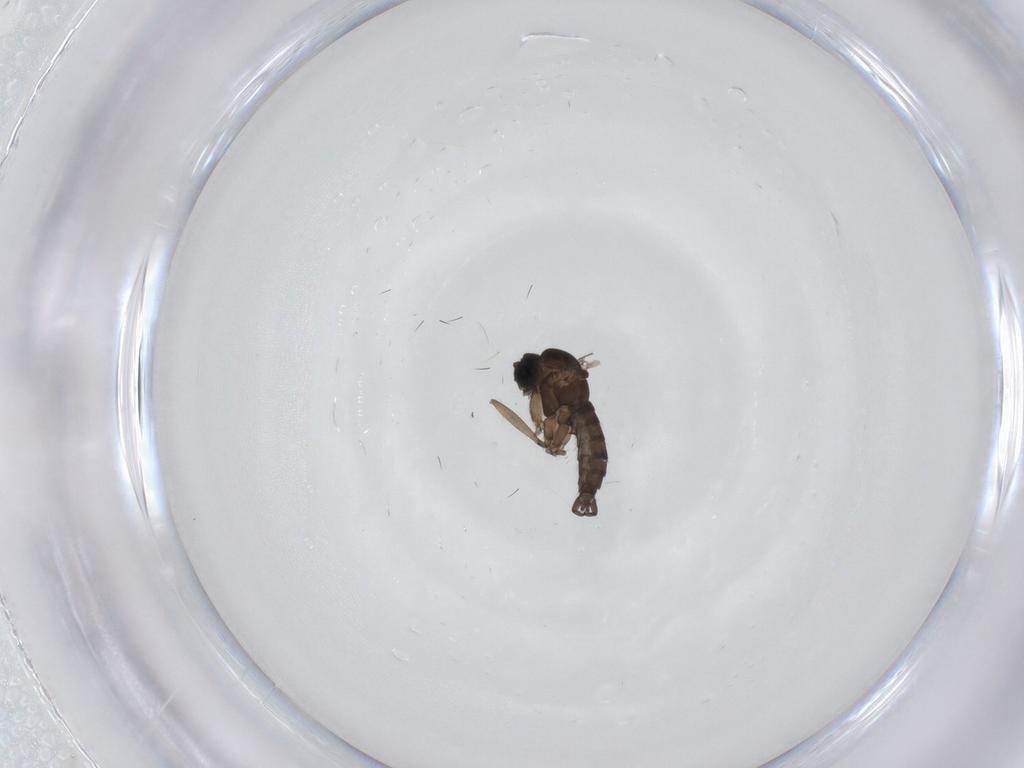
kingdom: Animalia
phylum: Arthropoda
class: Insecta
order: Diptera
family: Sciaridae
